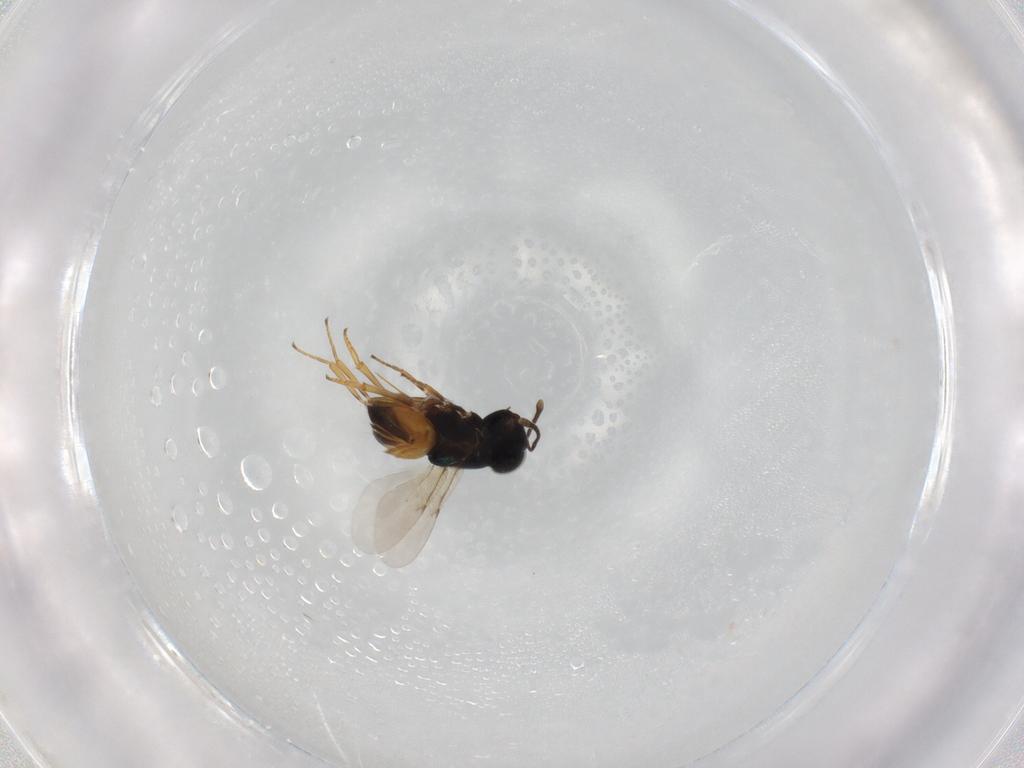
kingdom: Animalia
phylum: Arthropoda
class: Insecta
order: Hymenoptera
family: Encyrtidae
